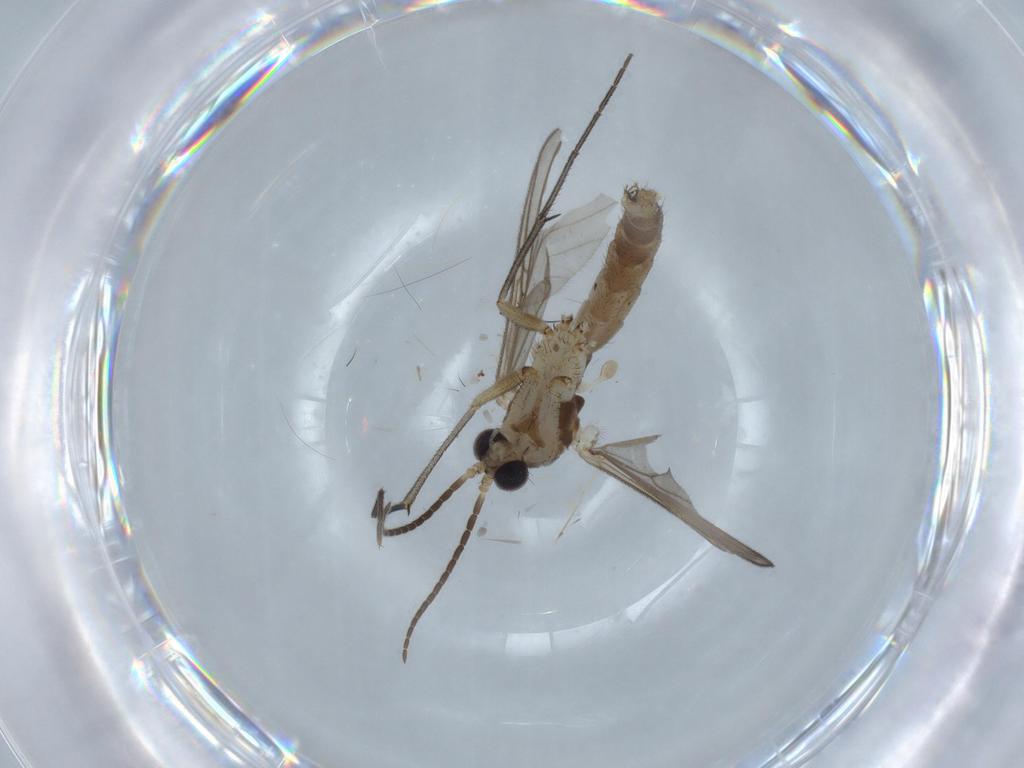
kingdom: Animalia
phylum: Arthropoda
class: Insecta
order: Diptera
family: Mycetophilidae
